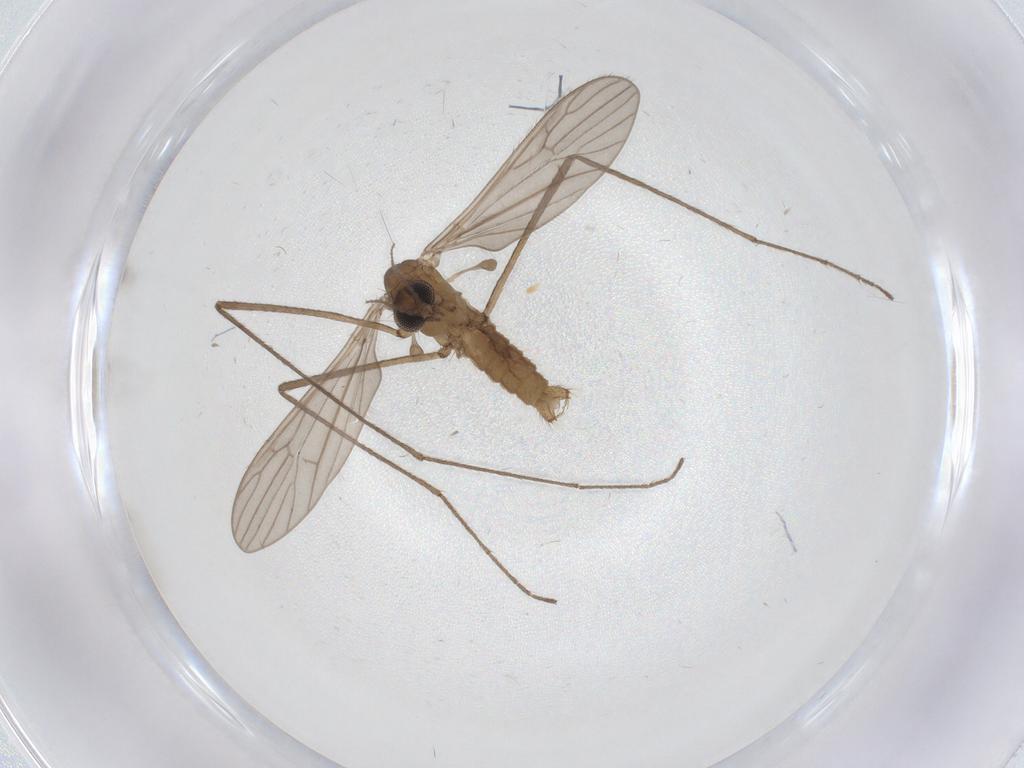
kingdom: Animalia
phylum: Arthropoda
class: Insecta
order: Diptera
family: Limoniidae
